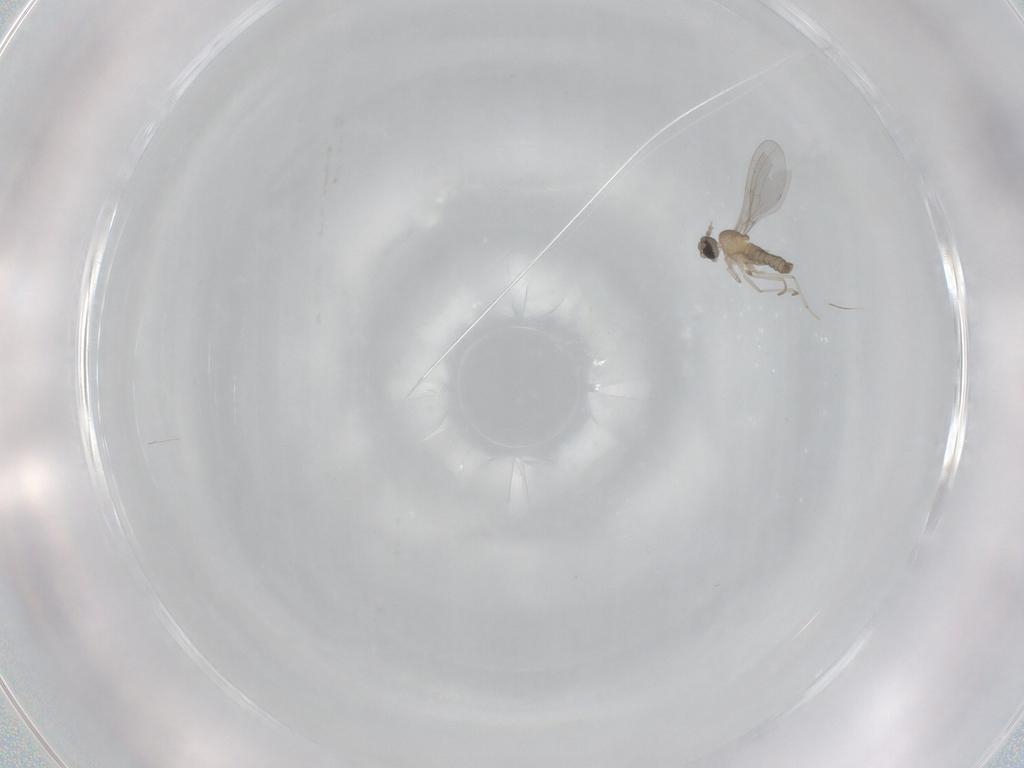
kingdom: Animalia
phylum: Arthropoda
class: Insecta
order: Diptera
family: Cecidomyiidae
